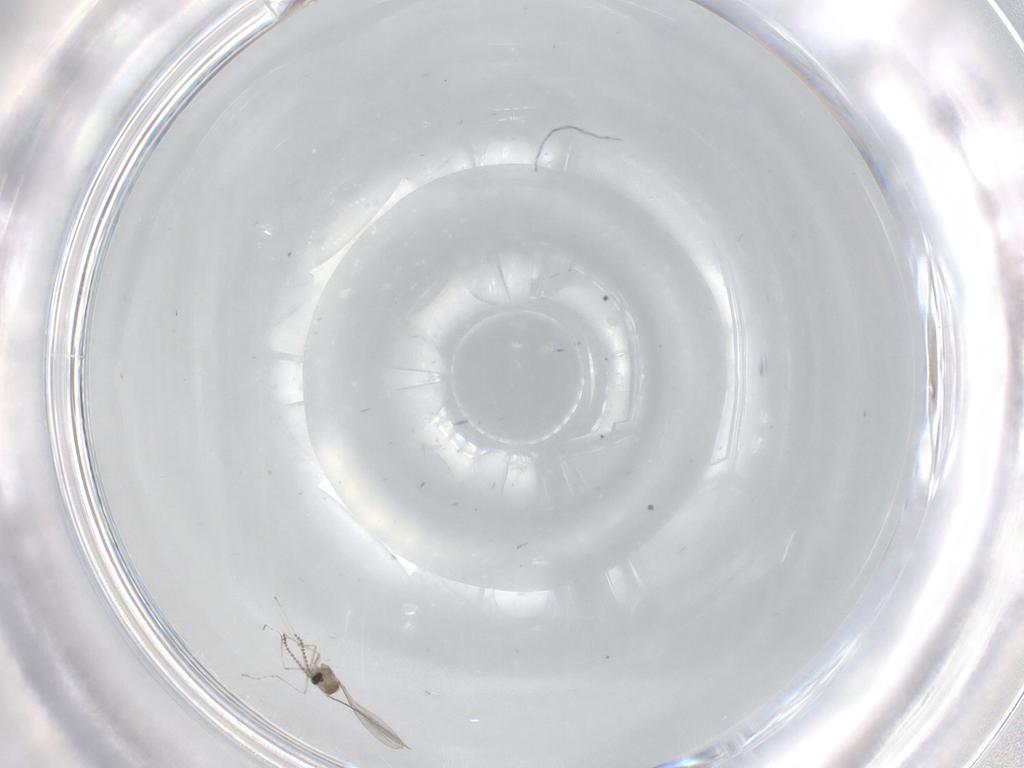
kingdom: Animalia
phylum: Arthropoda
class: Insecta
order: Diptera
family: Cecidomyiidae
